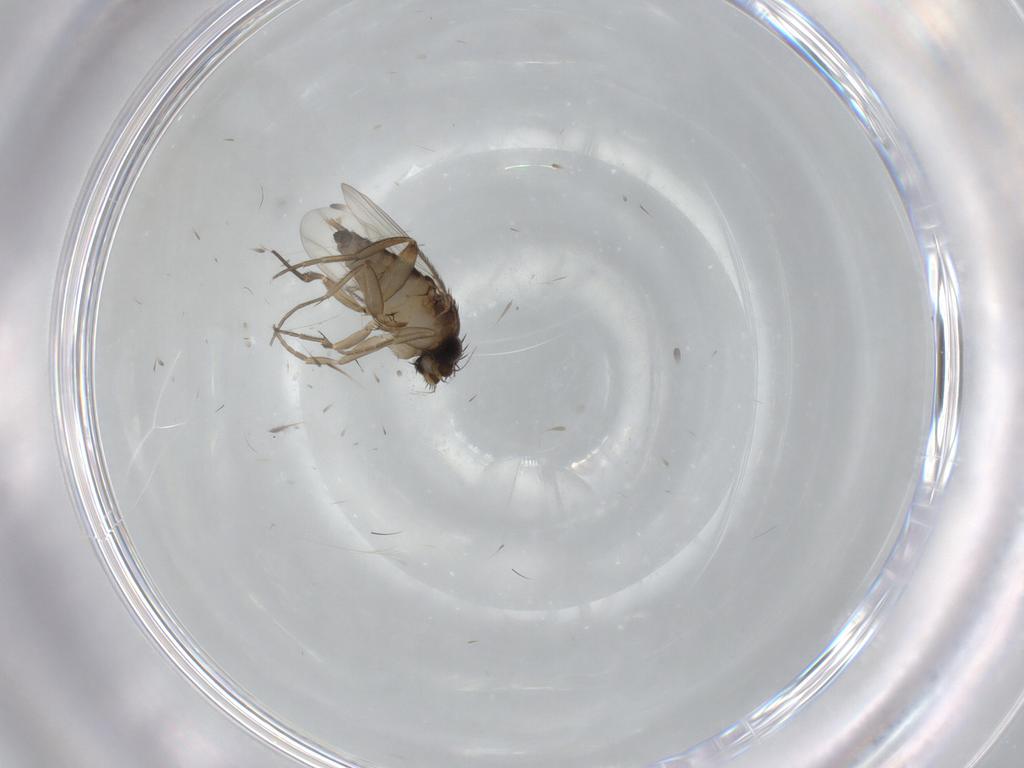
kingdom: Animalia
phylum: Arthropoda
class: Insecta
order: Diptera
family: Phoridae
